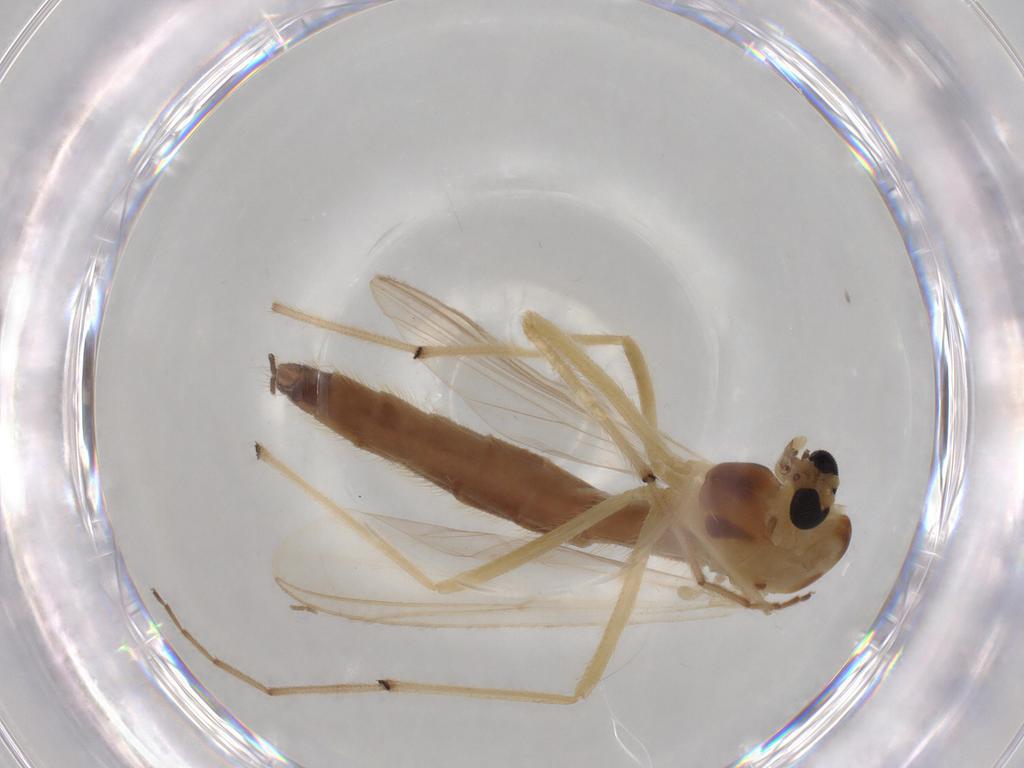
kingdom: Animalia
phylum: Arthropoda
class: Insecta
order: Diptera
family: Chironomidae
